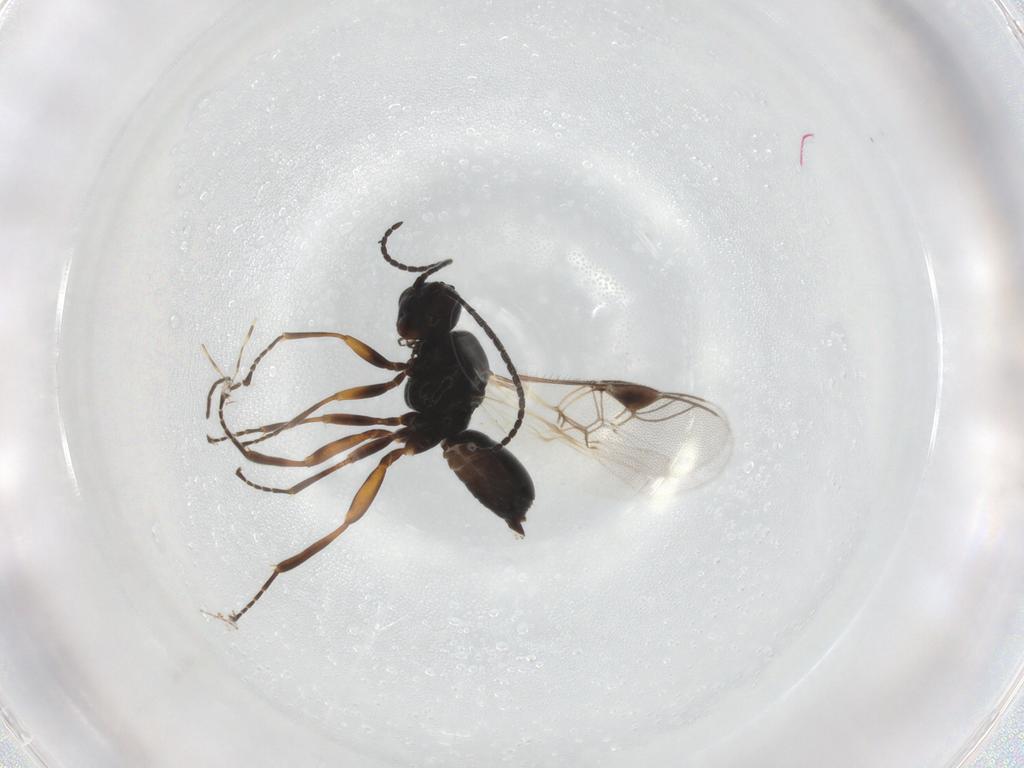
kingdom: Animalia
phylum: Arthropoda
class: Insecta
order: Hymenoptera
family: Braconidae
